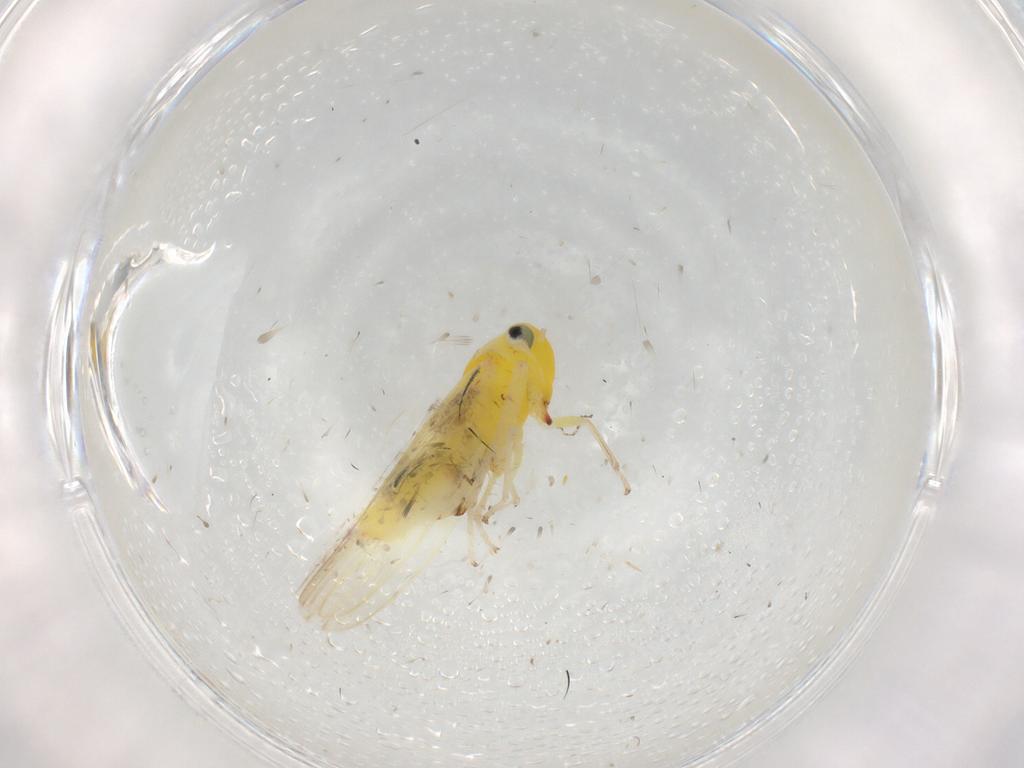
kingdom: Animalia
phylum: Arthropoda
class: Insecta
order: Hemiptera
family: Cicadellidae
